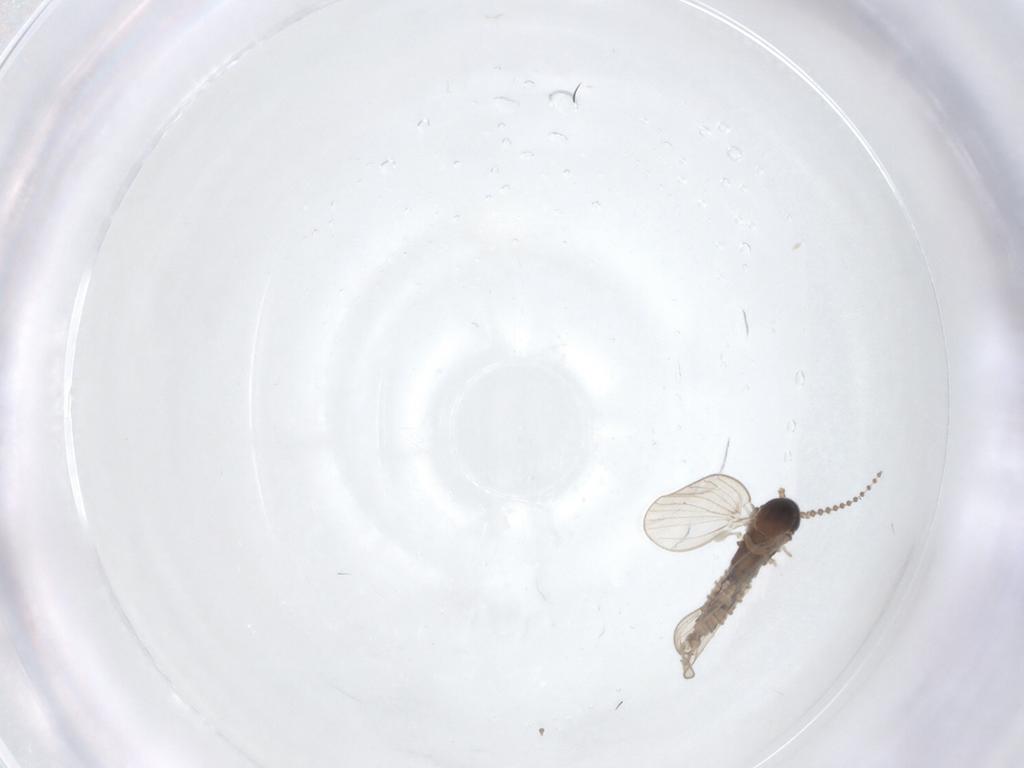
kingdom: Animalia
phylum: Arthropoda
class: Insecta
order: Diptera
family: Psychodidae
